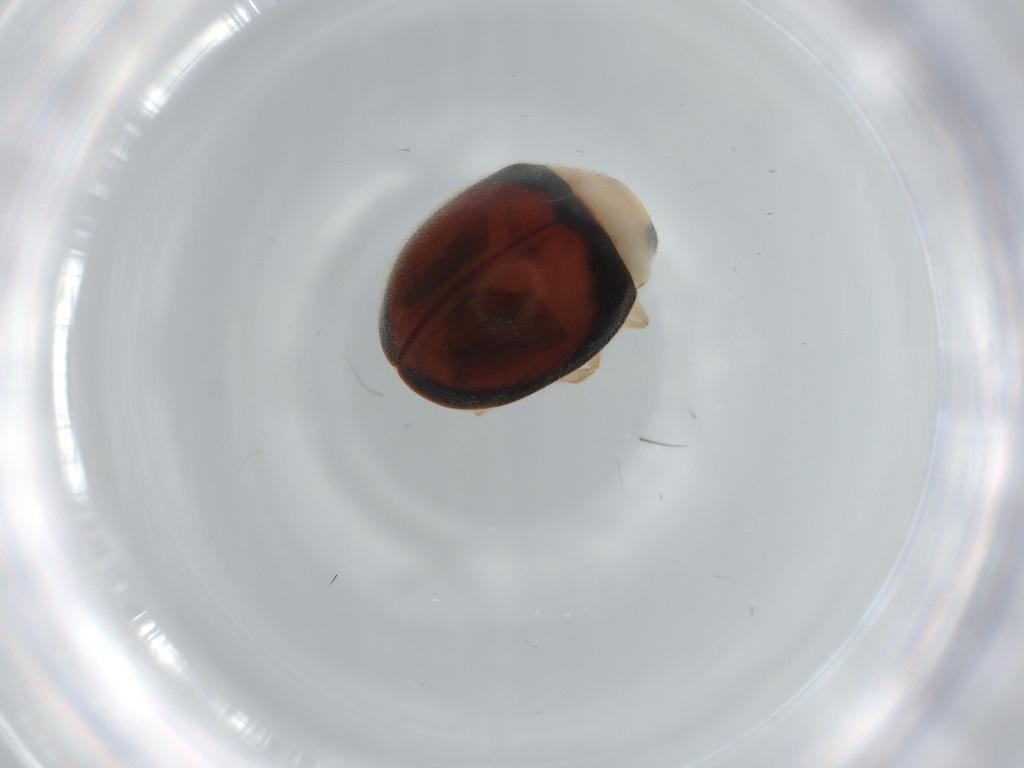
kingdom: Animalia
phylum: Arthropoda
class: Insecta
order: Coleoptera
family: Coccinellidae
